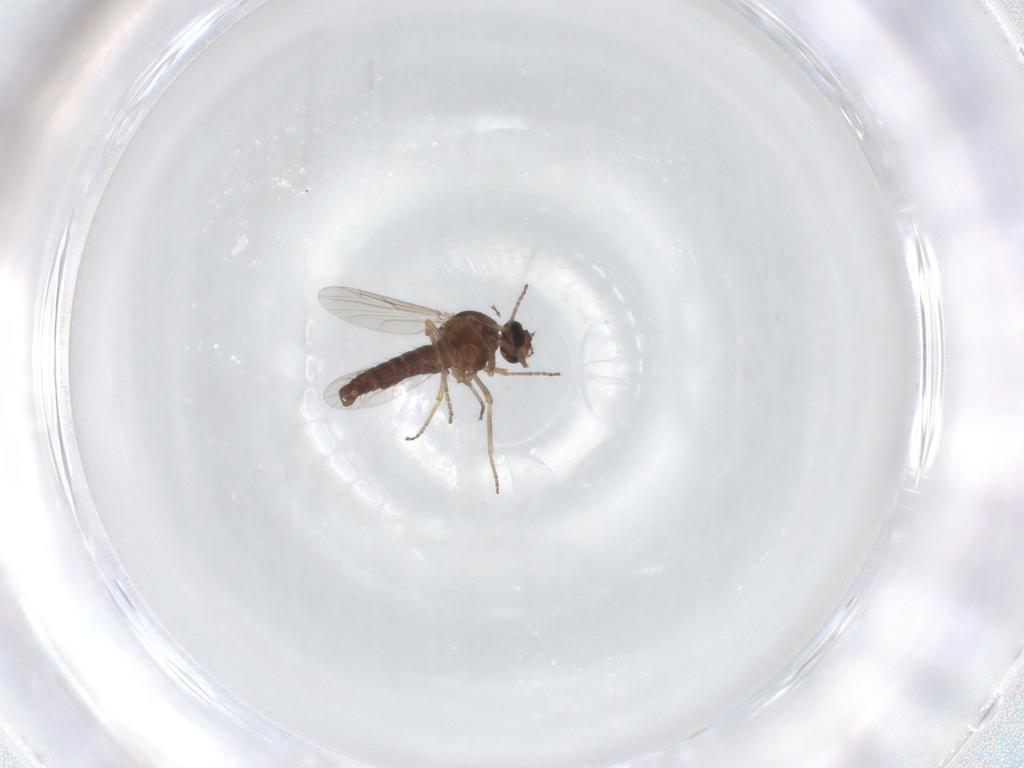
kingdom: Animalia
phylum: Arthropoda
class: Insecta
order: Diptera
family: Ceratopogonidae
